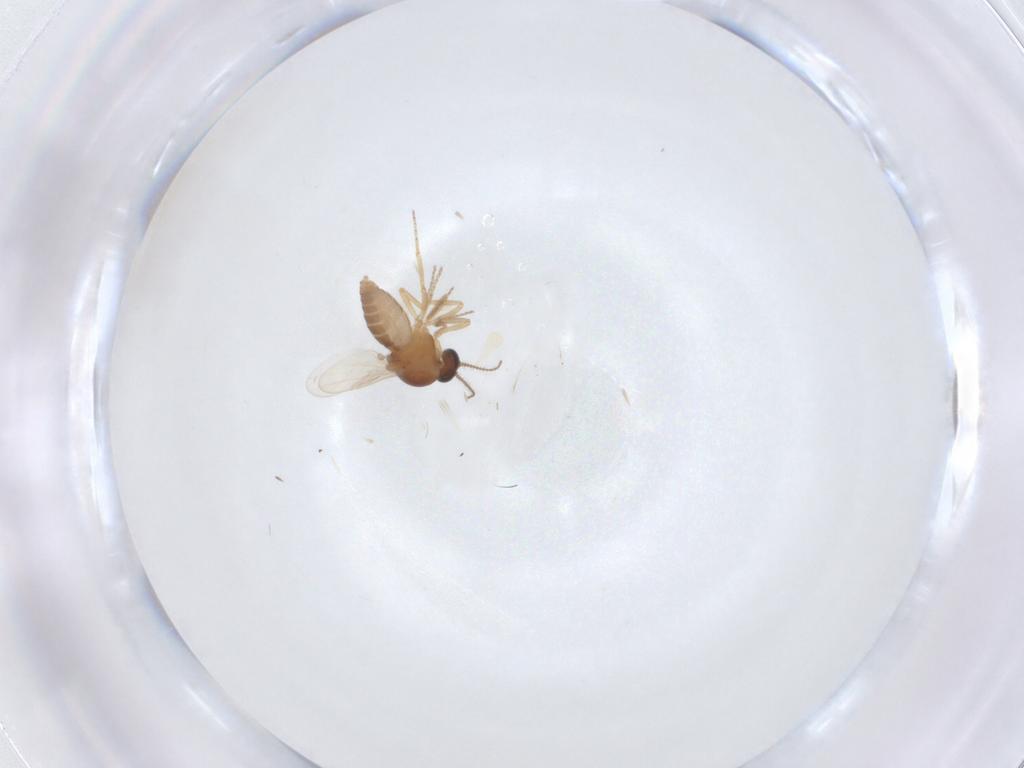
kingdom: Animalia
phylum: Arthropoda
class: Insecta
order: Diptera
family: Ceratopogonidae
